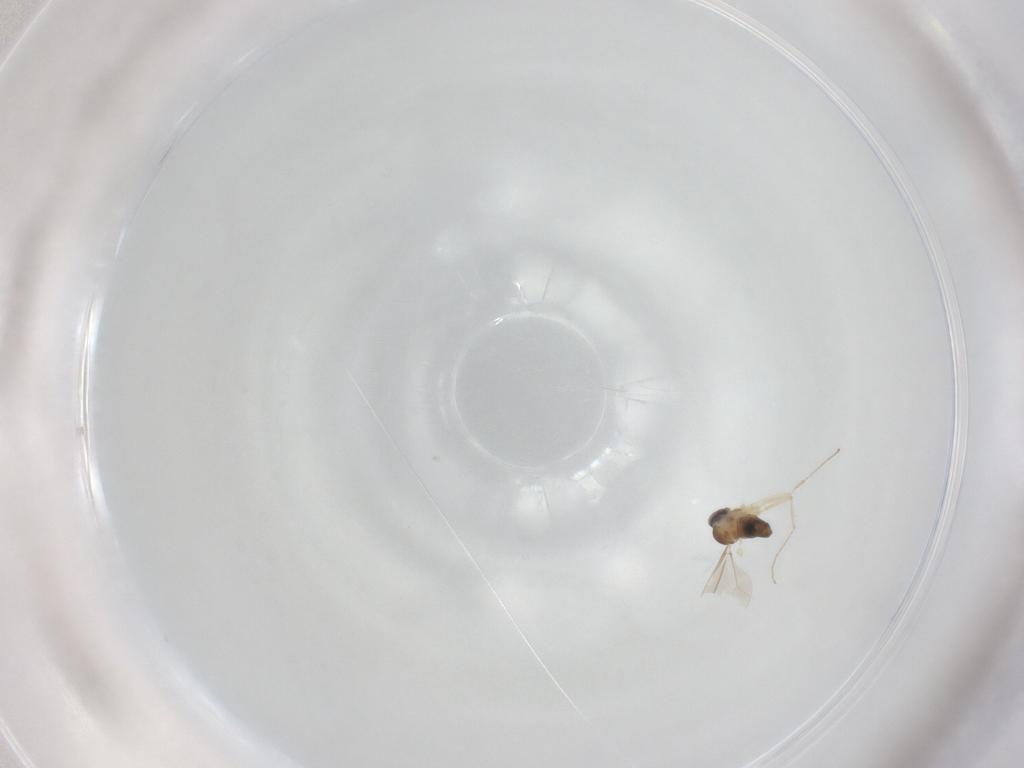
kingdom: Animalia
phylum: Arthropoda
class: Insecta
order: Diptera
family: Cecidomyiidae
